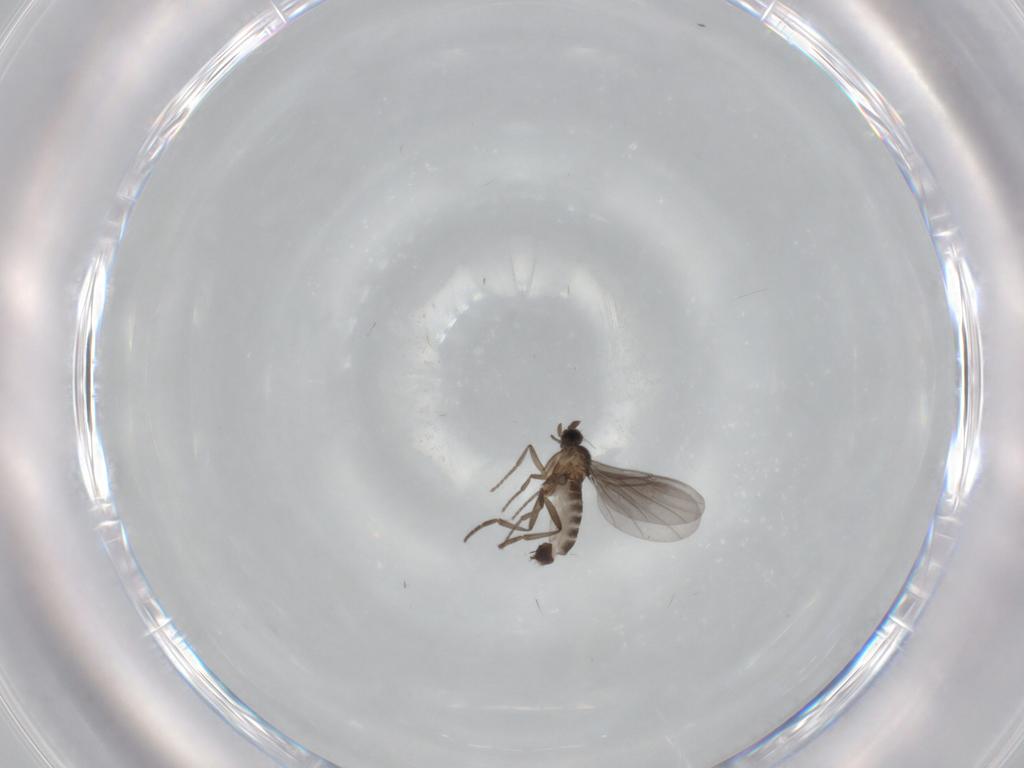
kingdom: Animalia
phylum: Arthropoda
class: Insecta
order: Diptera
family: Phoridae
